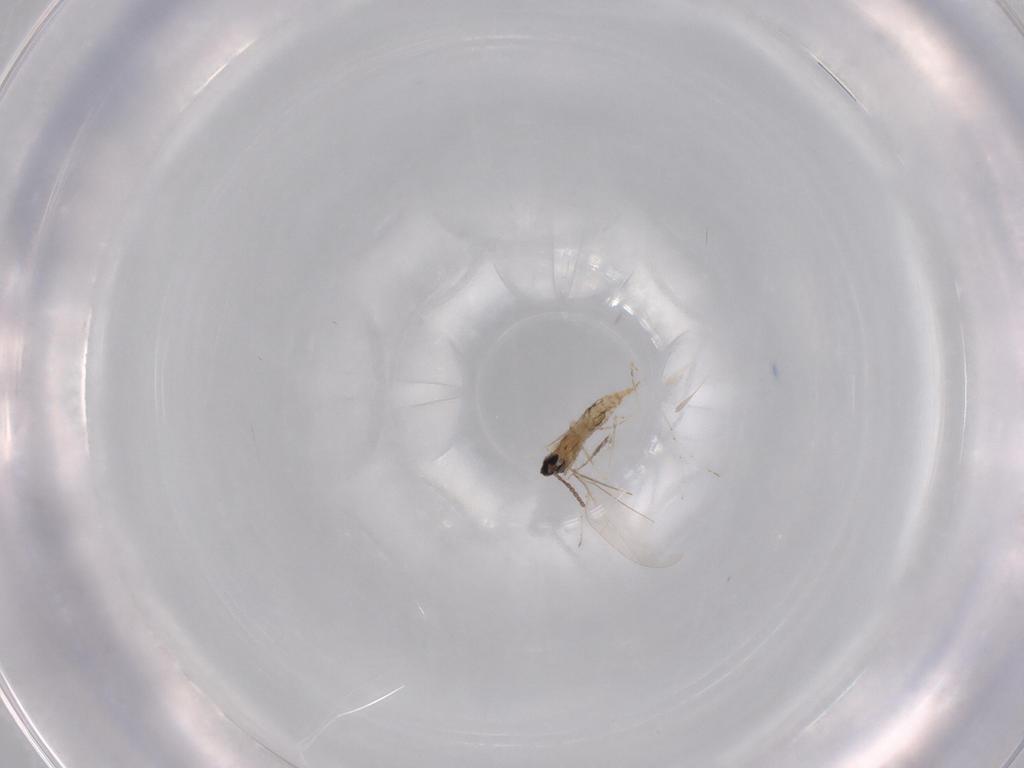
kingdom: Animalia
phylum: Arthropoda
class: Insecta
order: Diptera
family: Cecidomyiidae
